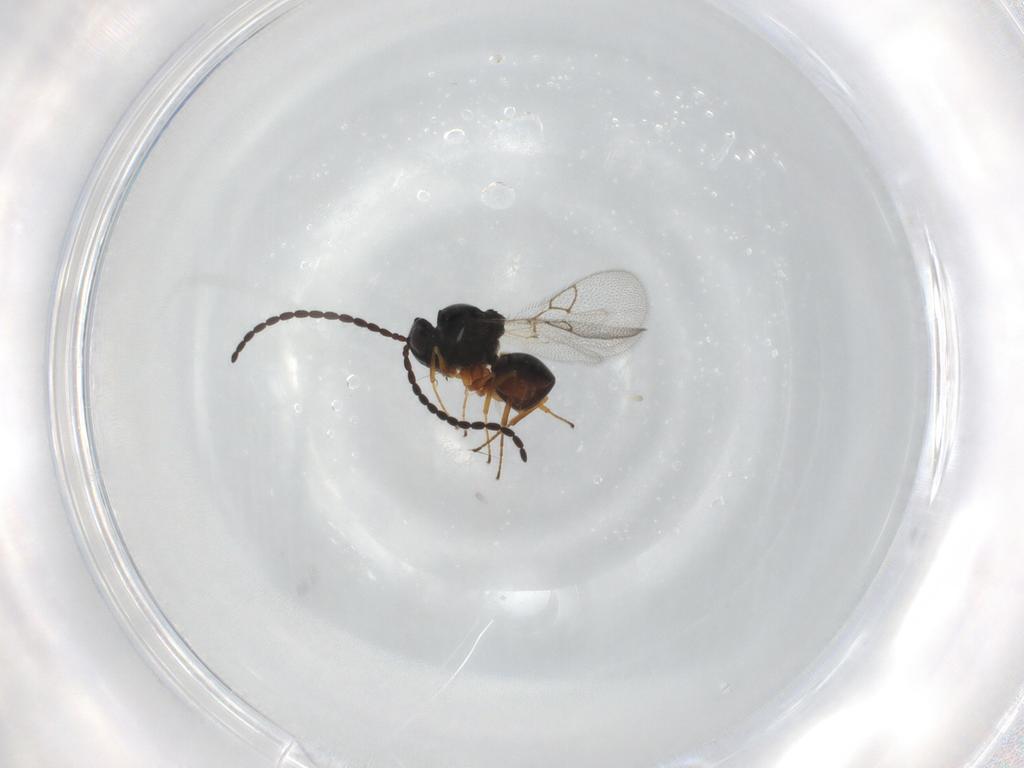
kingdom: Animalia
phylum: Arthropoda
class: Insecta
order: Hymenoptera
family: Figitidae
